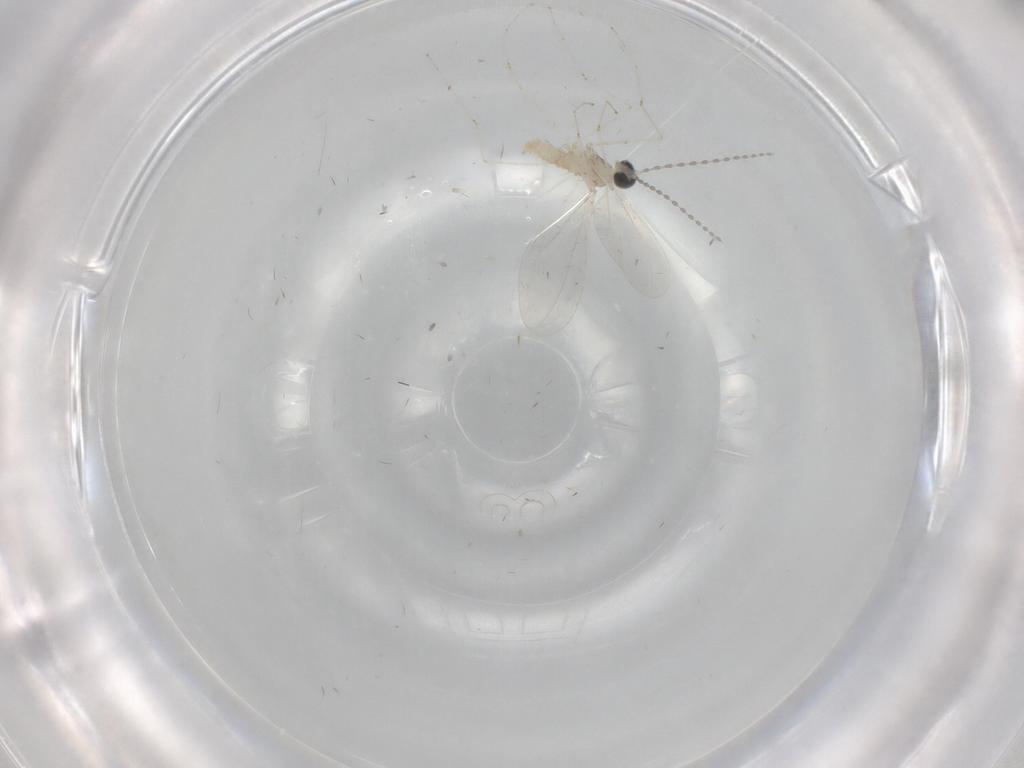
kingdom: Animalia
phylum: Arthropoda
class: Insecta
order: Diptera
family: Cecidomyiidae
